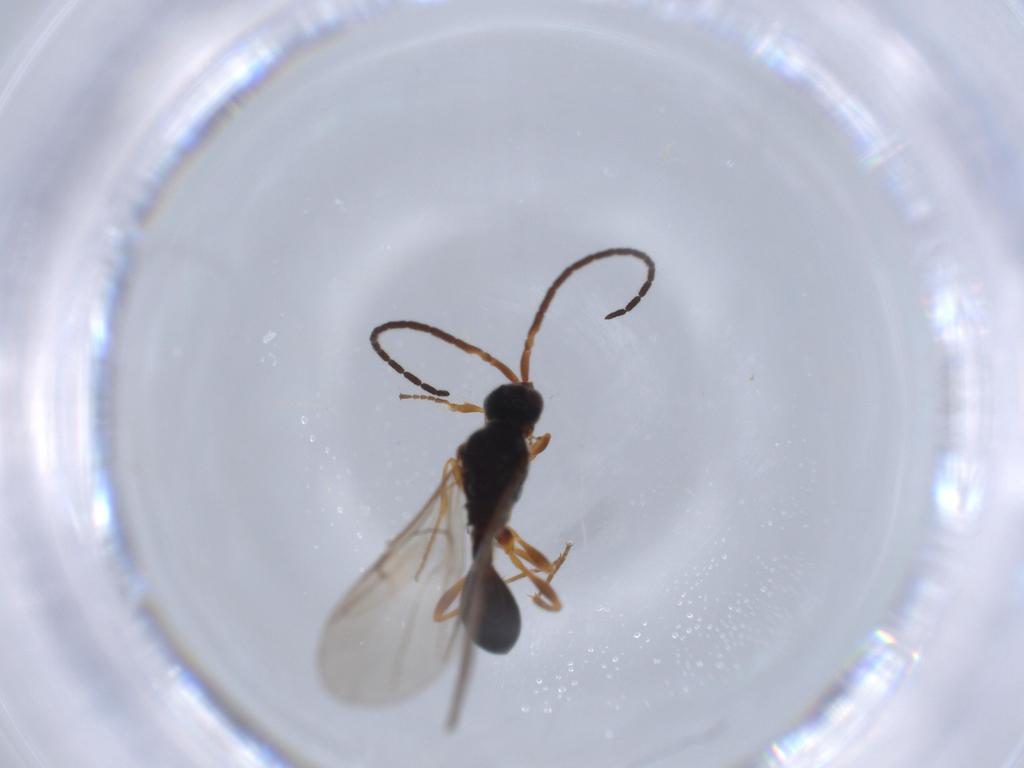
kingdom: Animalia
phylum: Arthropoda
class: Insecta
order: Hymenoptera
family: Diapriidae
